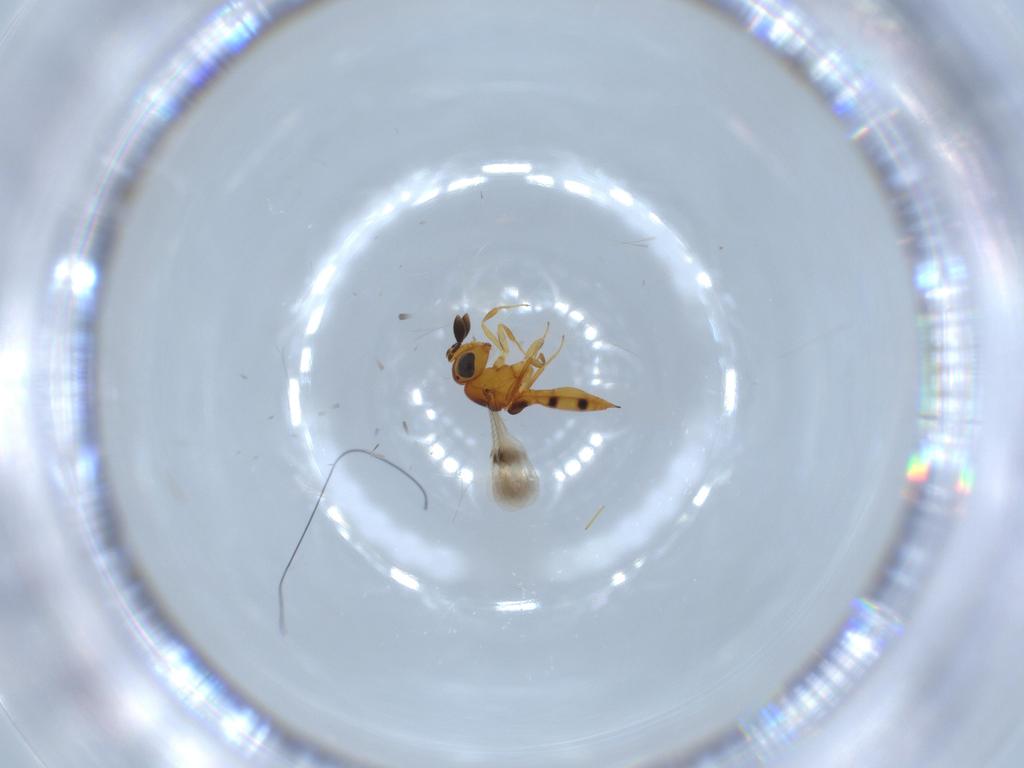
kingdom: Animalia
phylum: Arthropoda
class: Insecta
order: Hymenoptera
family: Scelionidae
